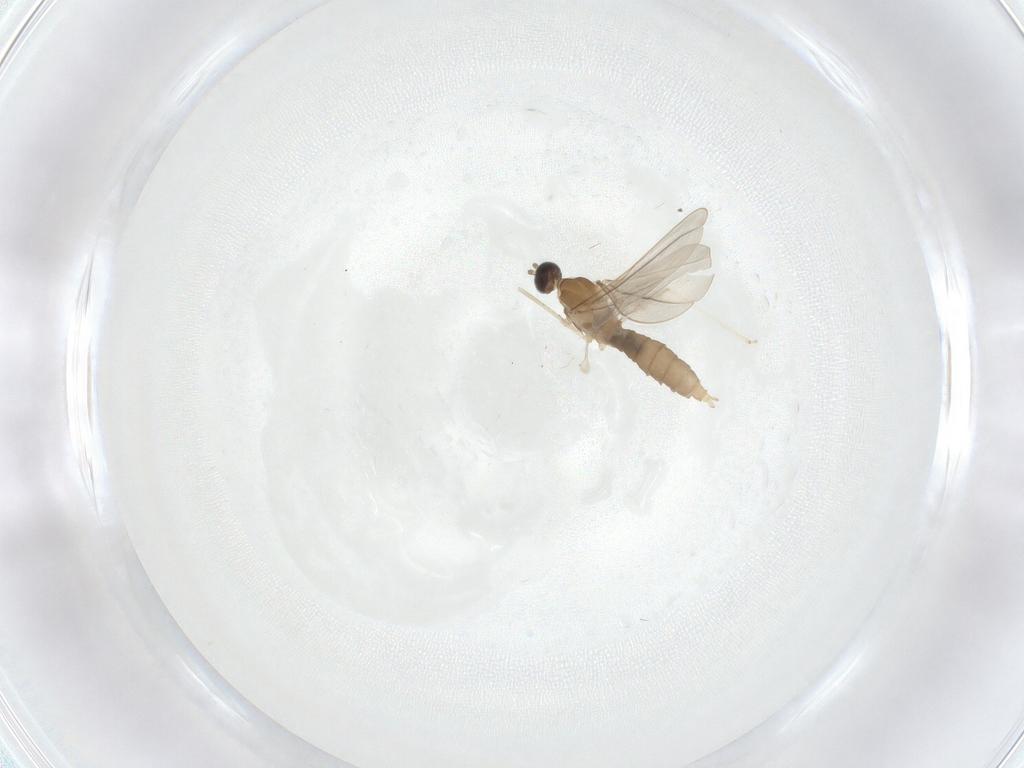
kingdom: Animalia
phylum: Arthropoda
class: Insecta
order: Diptera
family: Cecidomyiidae
